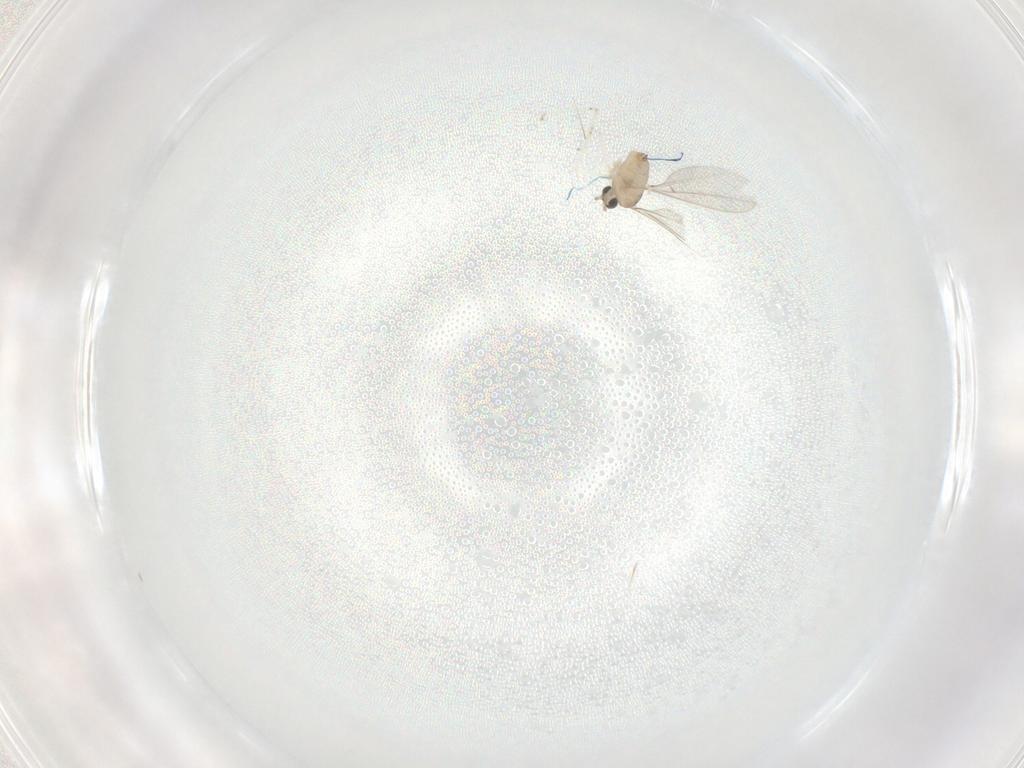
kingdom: Animalia
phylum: Arthropoda
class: Insecta
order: Diptera
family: Cecidomyiidae
